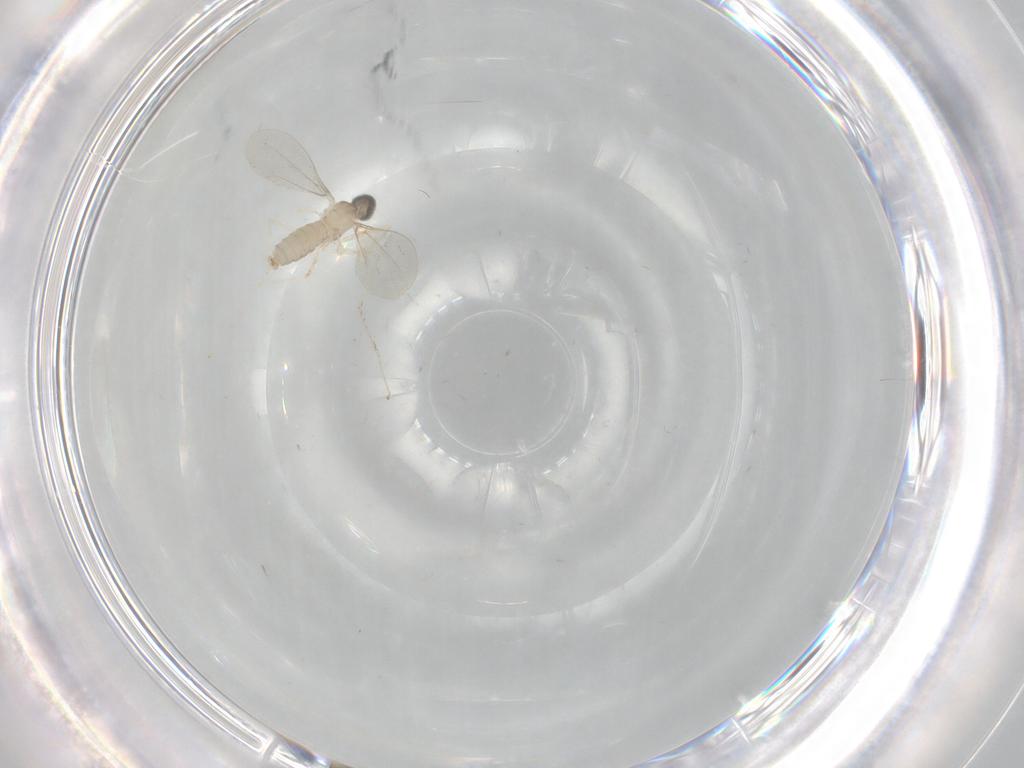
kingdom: Animalia
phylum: Arthropoda
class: Insecta
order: Diptera
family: Cecidomyiidae
